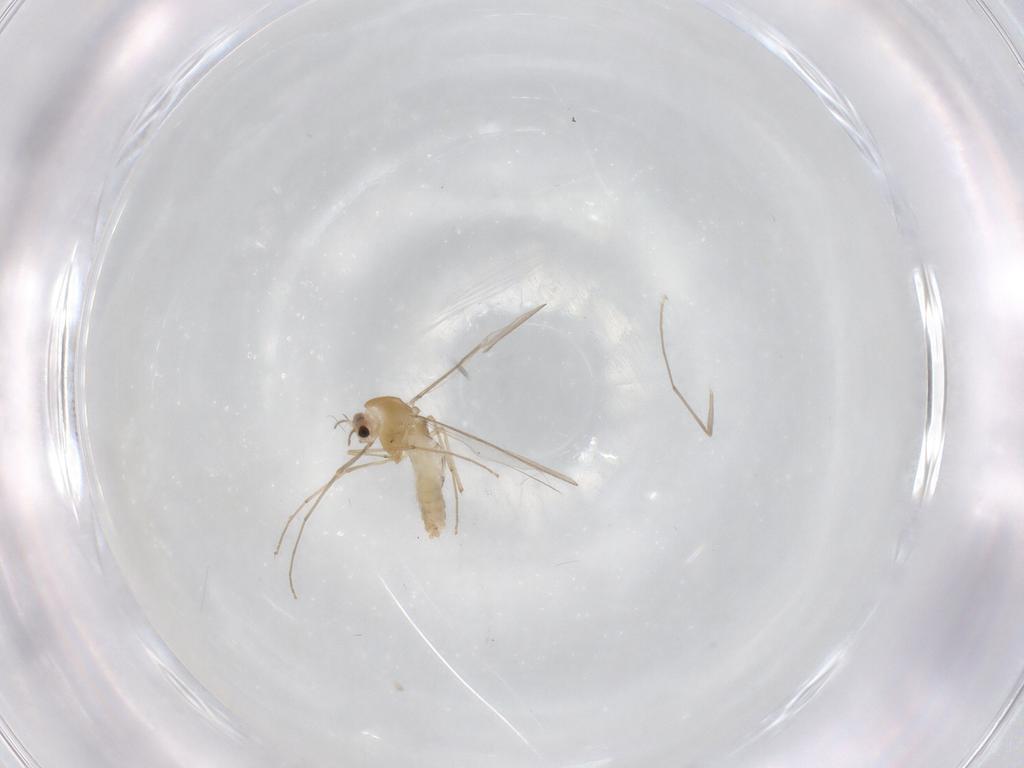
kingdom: Animalia
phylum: Arthropoda
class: Insecta
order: Diptera
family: Chironomidae
